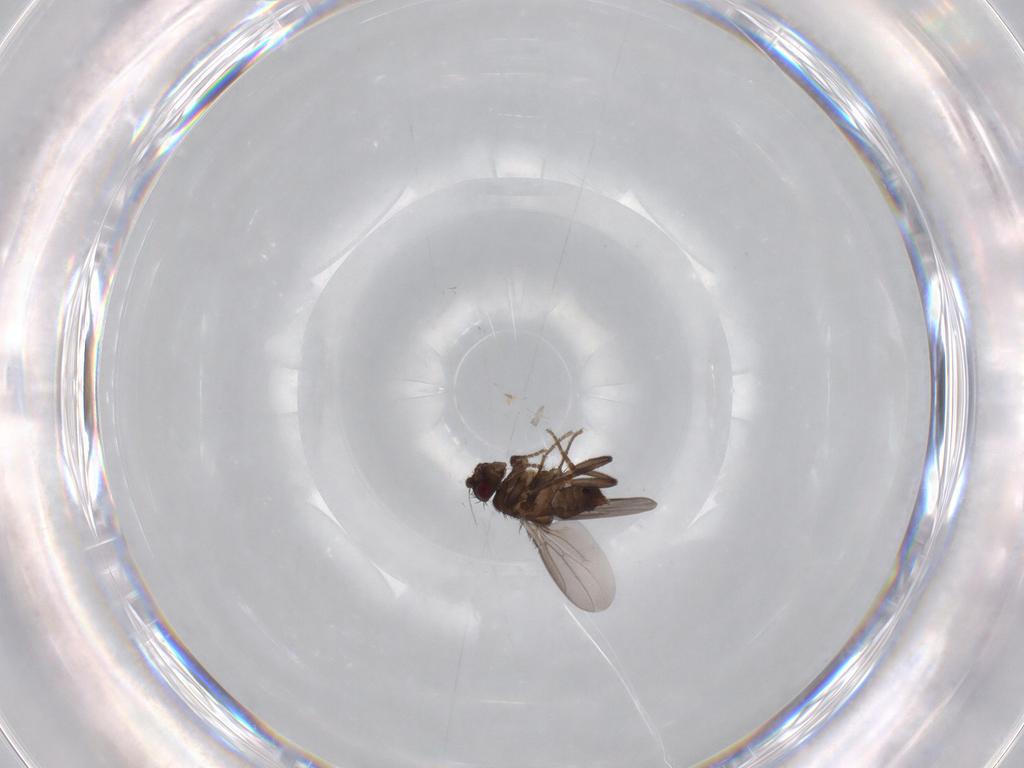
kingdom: Animalia
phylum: Arthropoda
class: Insecta
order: Diptera
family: Sphaeroceridae
